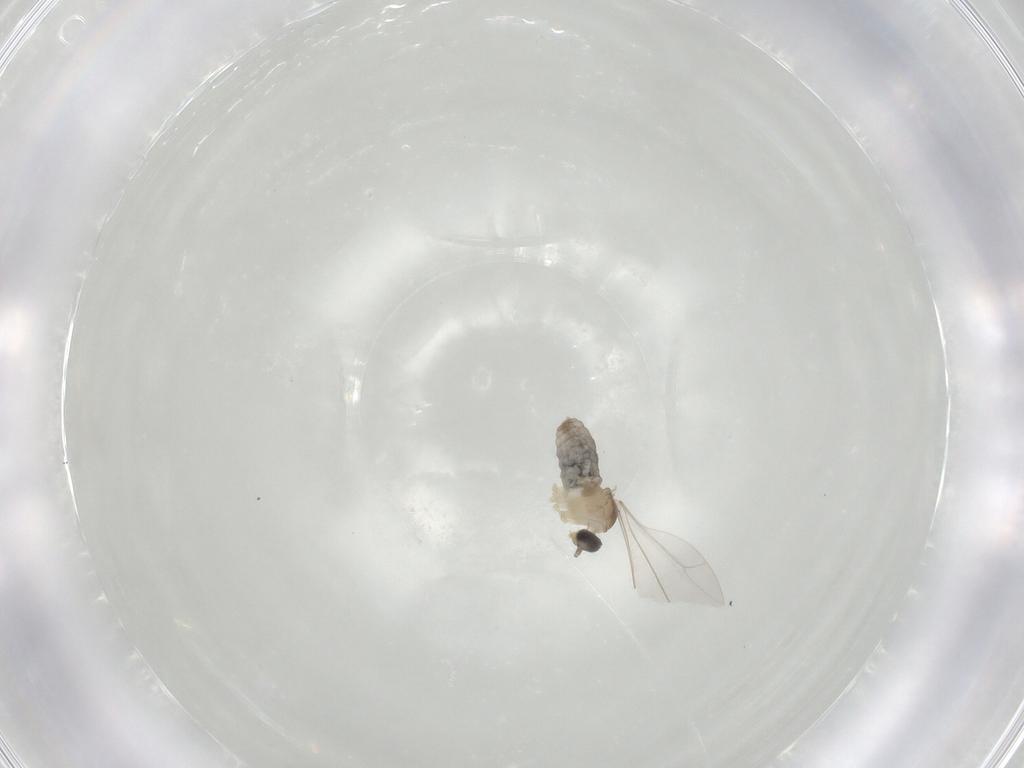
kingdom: Animalia
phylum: Arthropoda
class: Insecta
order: Diptera
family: Cecidomyiidae
